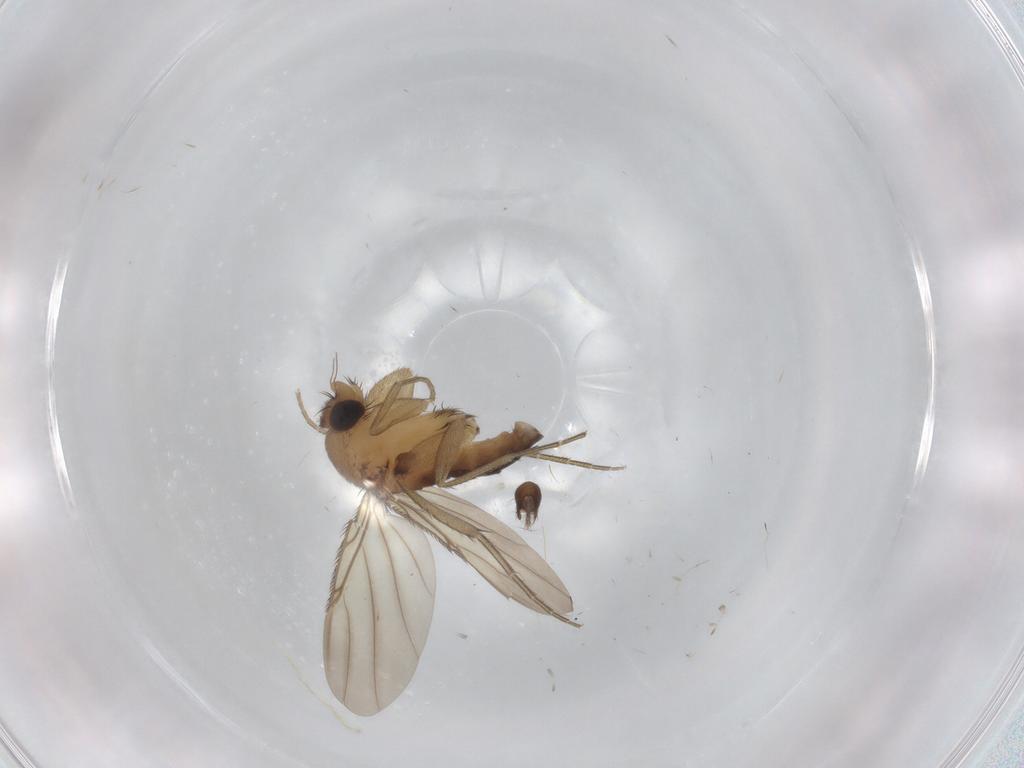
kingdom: Animalia
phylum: Arthropoda
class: Insecta
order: Diptera
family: Phoridae
